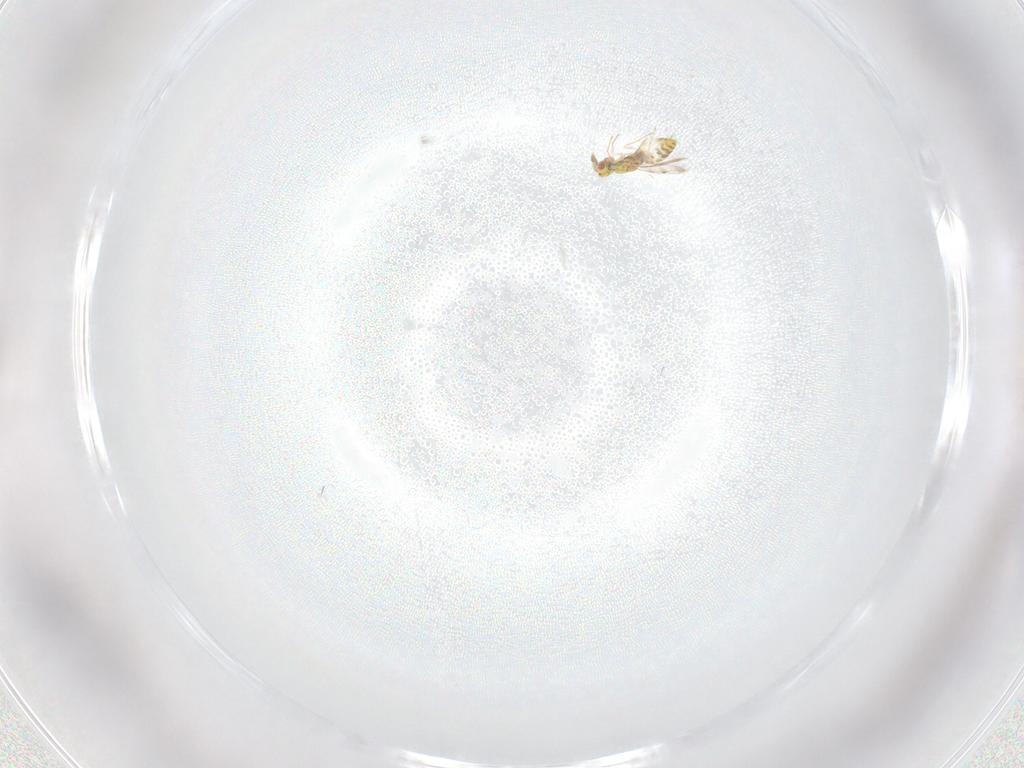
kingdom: Animalia
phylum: Arthropoda
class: Insecta
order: Hymenoptera
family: Eulophidae
